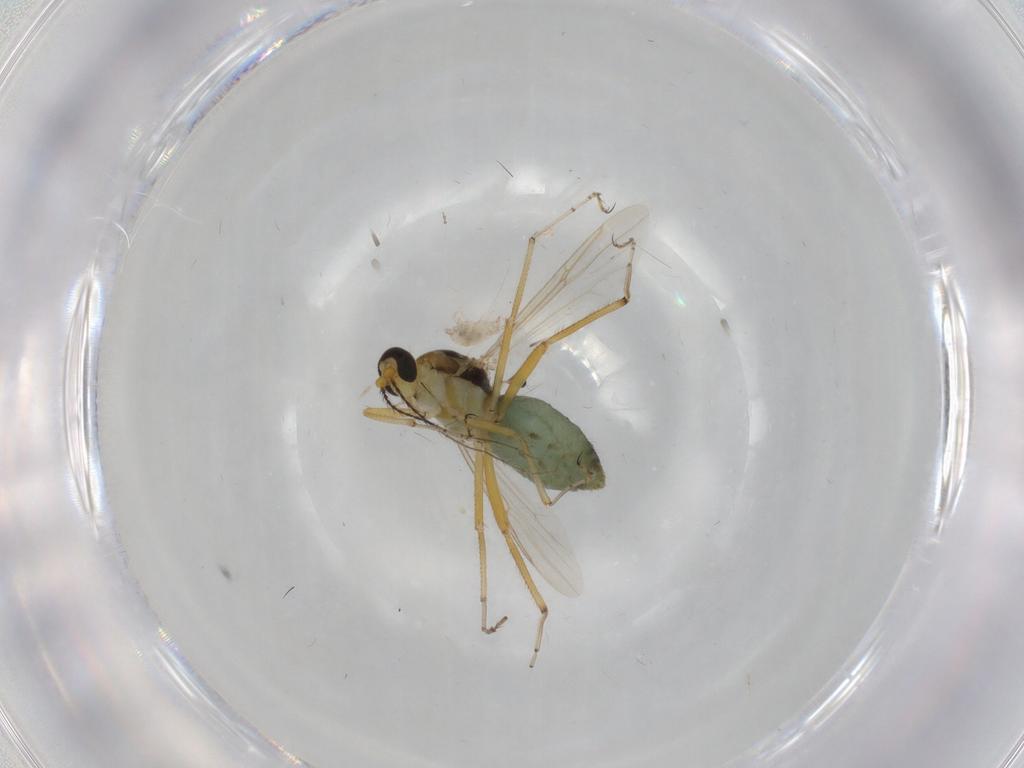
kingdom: Animalia
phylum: Arthropoda
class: Insecta
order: Diptera
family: Ceratopogonidae
